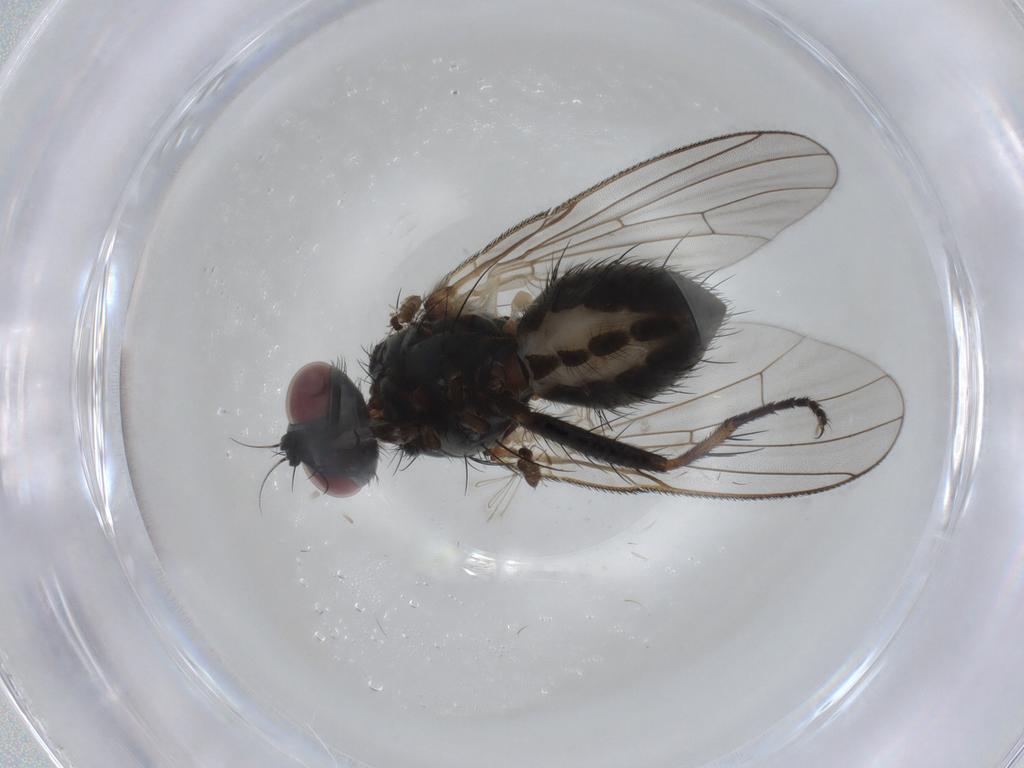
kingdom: Animalia
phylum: Arthropoda
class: Insecta
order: Diptera
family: Muscidae
